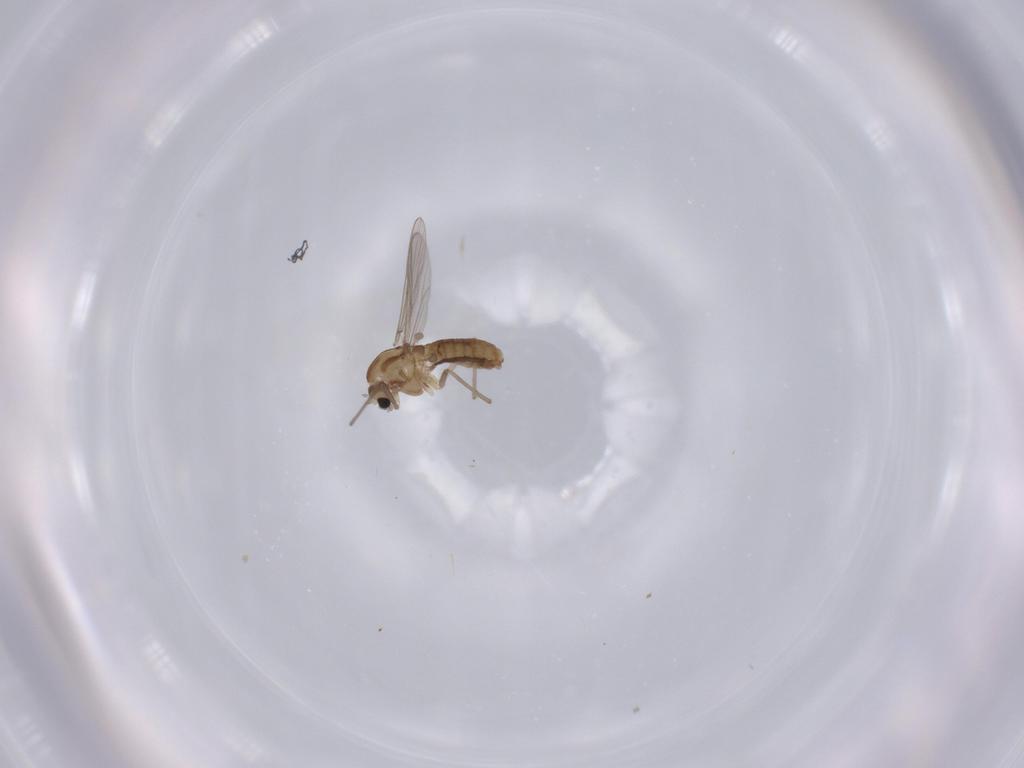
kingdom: Animalia
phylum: Arthropoda
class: Insecta
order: Diptera
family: Chironomidae
